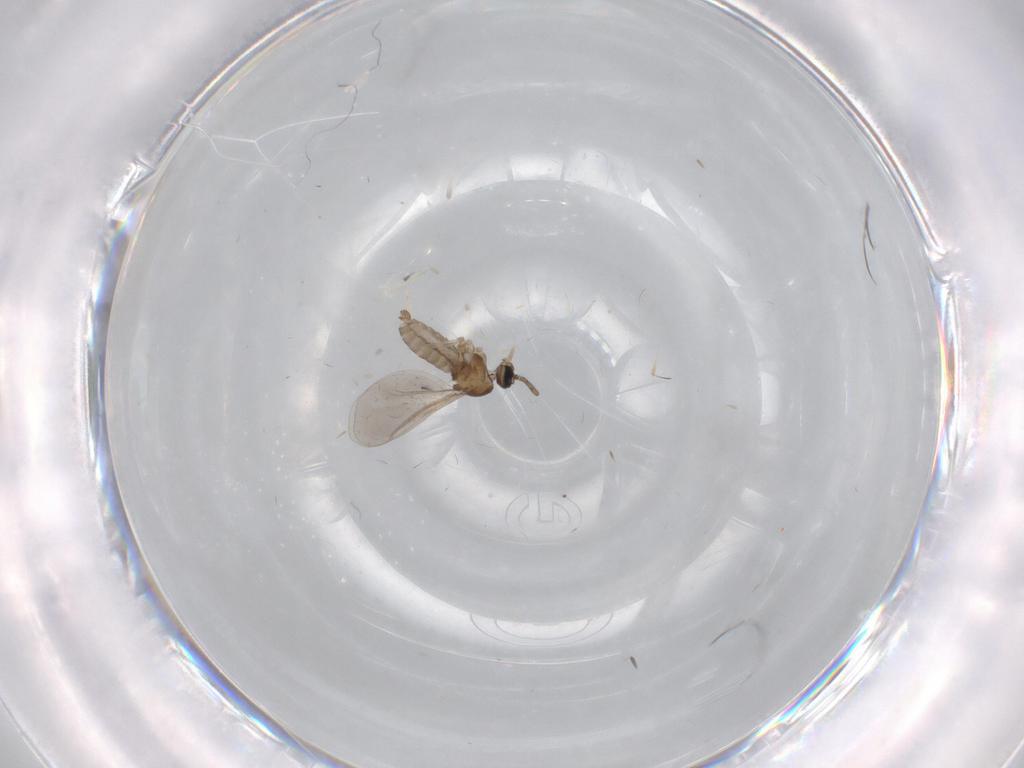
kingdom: Animalia
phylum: Arthropoda
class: Insecta
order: Diptera
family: Cecidomyiidae
